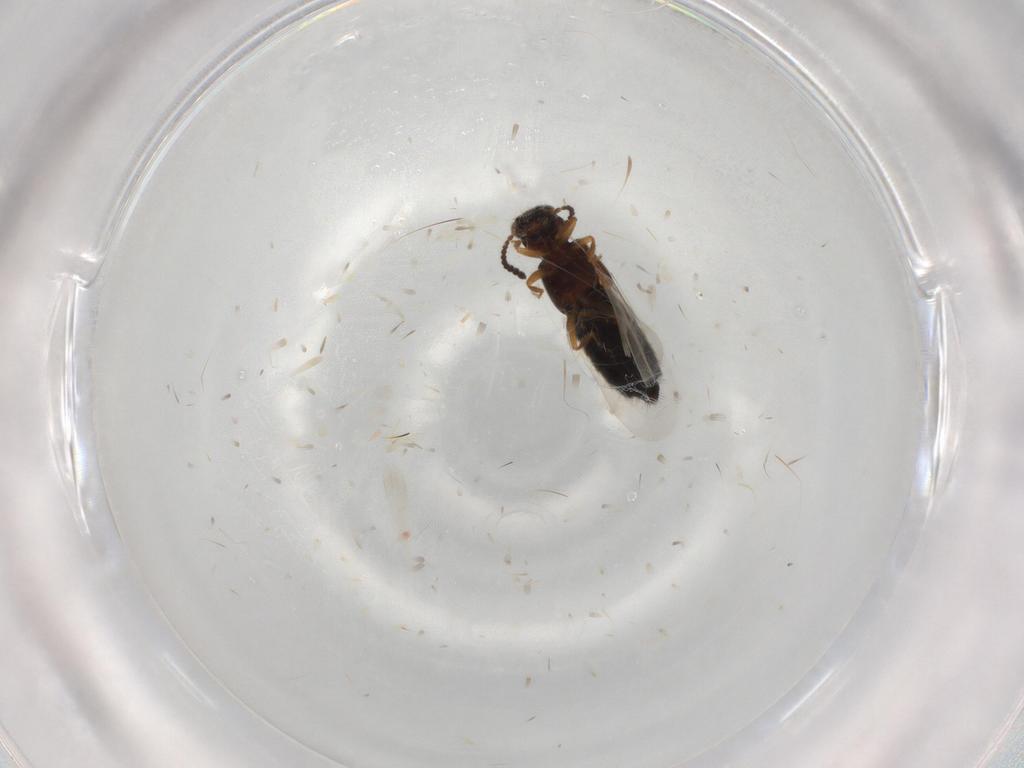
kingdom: Animalia
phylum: Arthropoda
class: Insecta
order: Coleoptera
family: Staphylinidae
